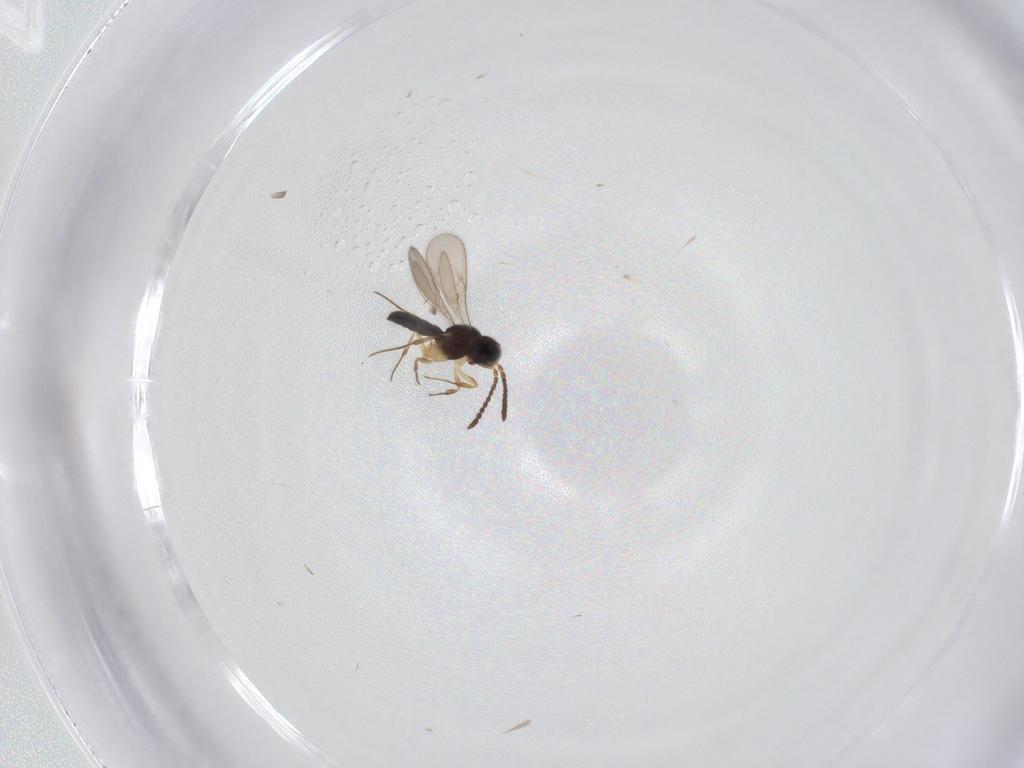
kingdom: Animalia
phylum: Arthropoda
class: Insecta
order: Hymenoptera
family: Scelionidae
